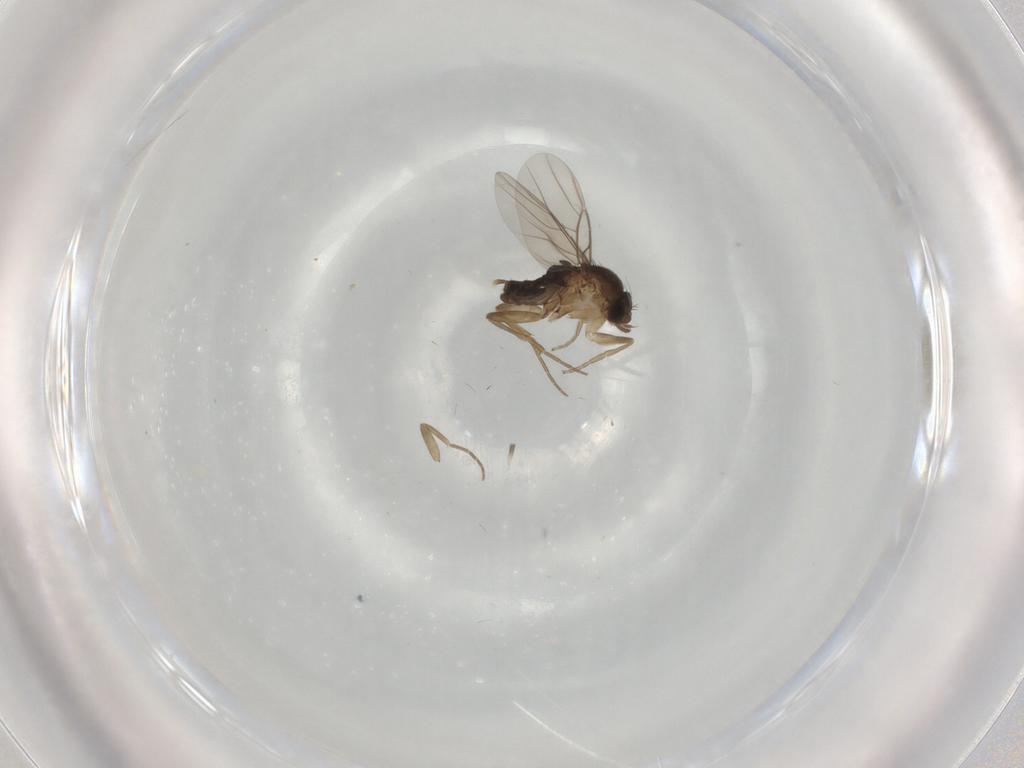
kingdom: Animalia
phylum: Arthropoda
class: Insecta
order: Diptera
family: Phoridae
